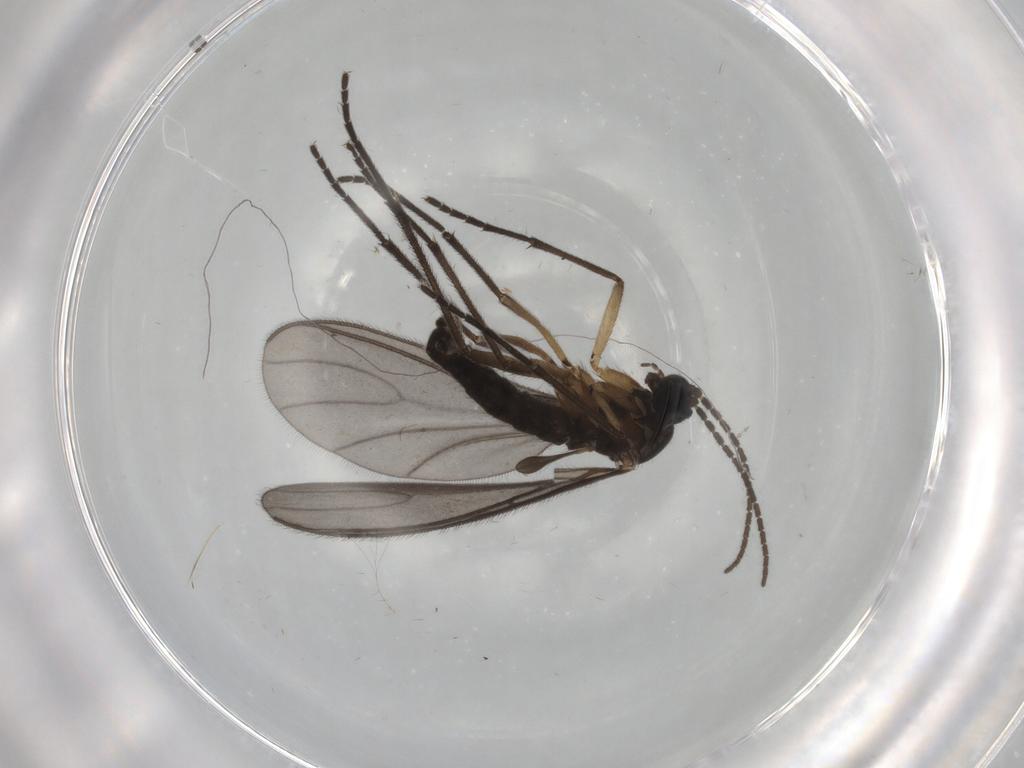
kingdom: Animalia
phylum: Arthropoda
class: Insecta
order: Diptera
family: Sciaridae
